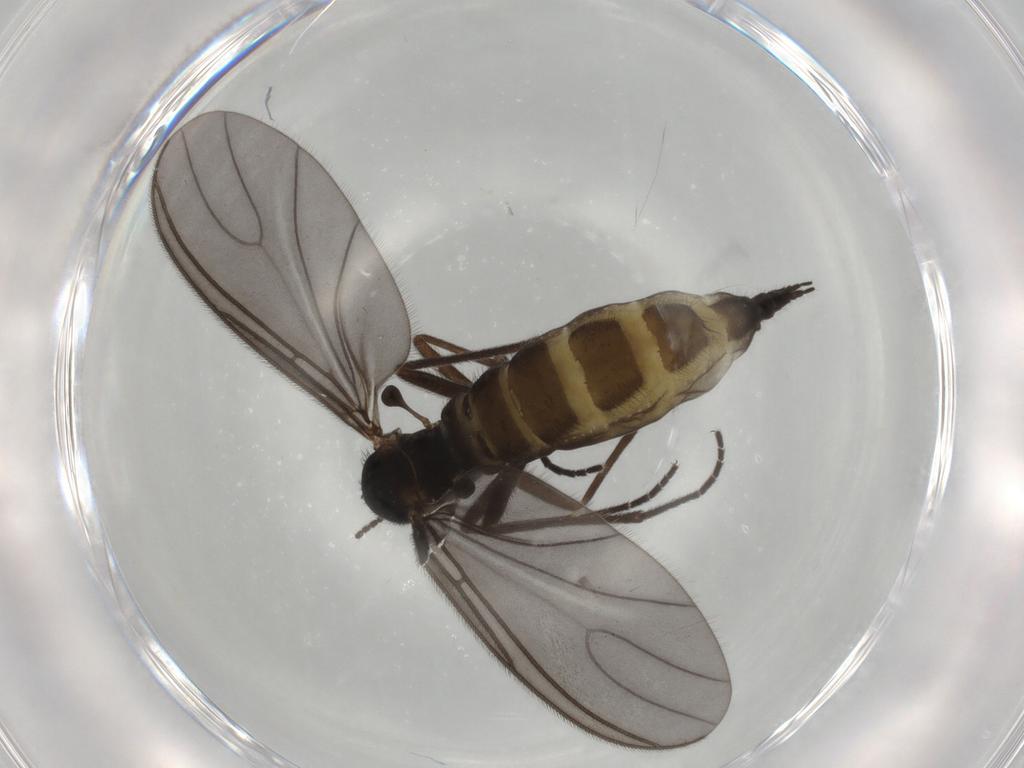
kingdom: Animalia
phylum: Arthropoda
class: Insecta
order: Diptera
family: Sciaridae
